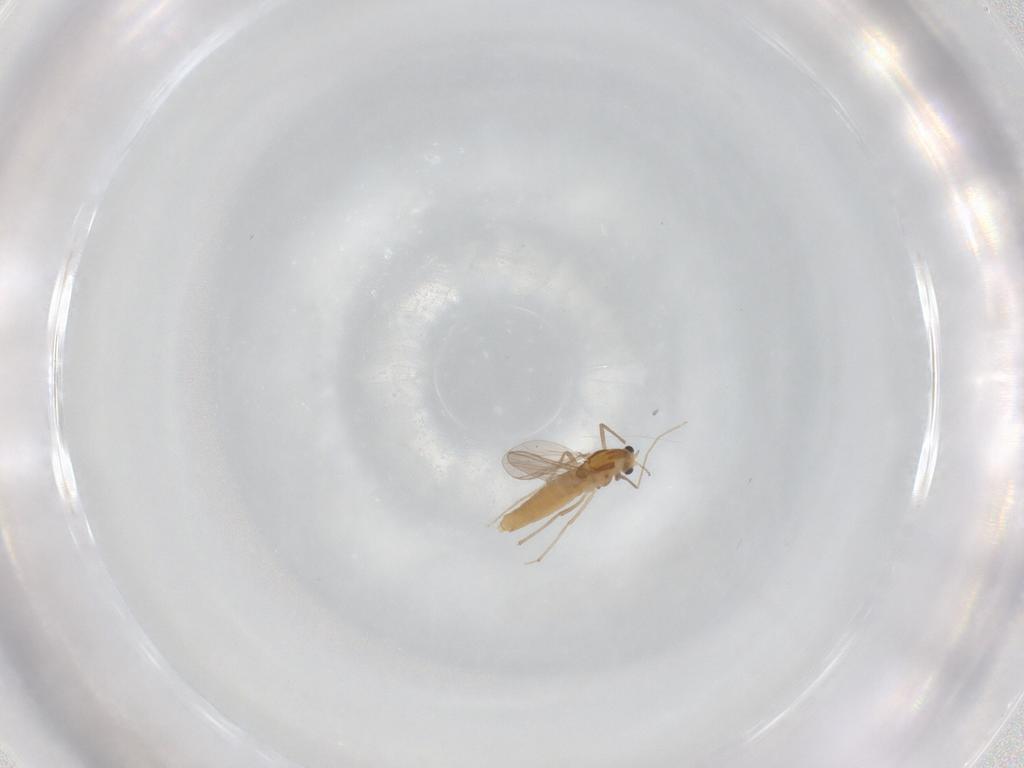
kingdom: Animalia
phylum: Arthropoda
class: Insecta
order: Diptera
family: Chironomidae
